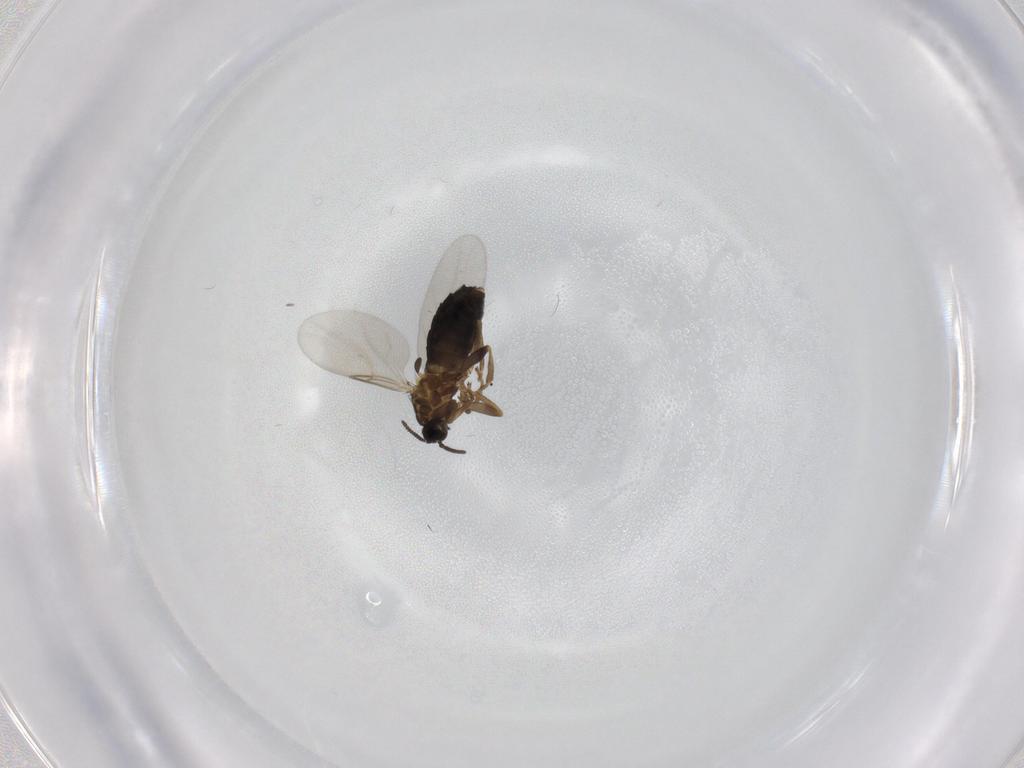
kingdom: Animalia
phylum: Arthropoda
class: Insecta
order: Diptera
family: Scatopsidae
